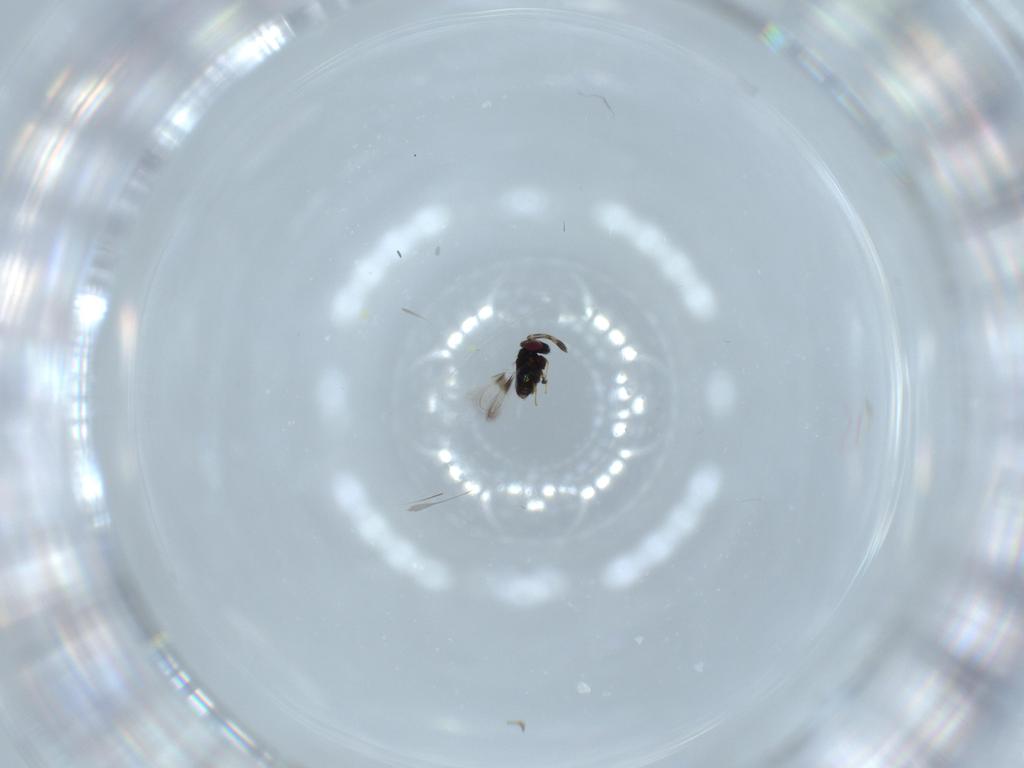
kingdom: Animalia
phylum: Arthropoda
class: Insecta
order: Hymenoptera
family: Azotidae
